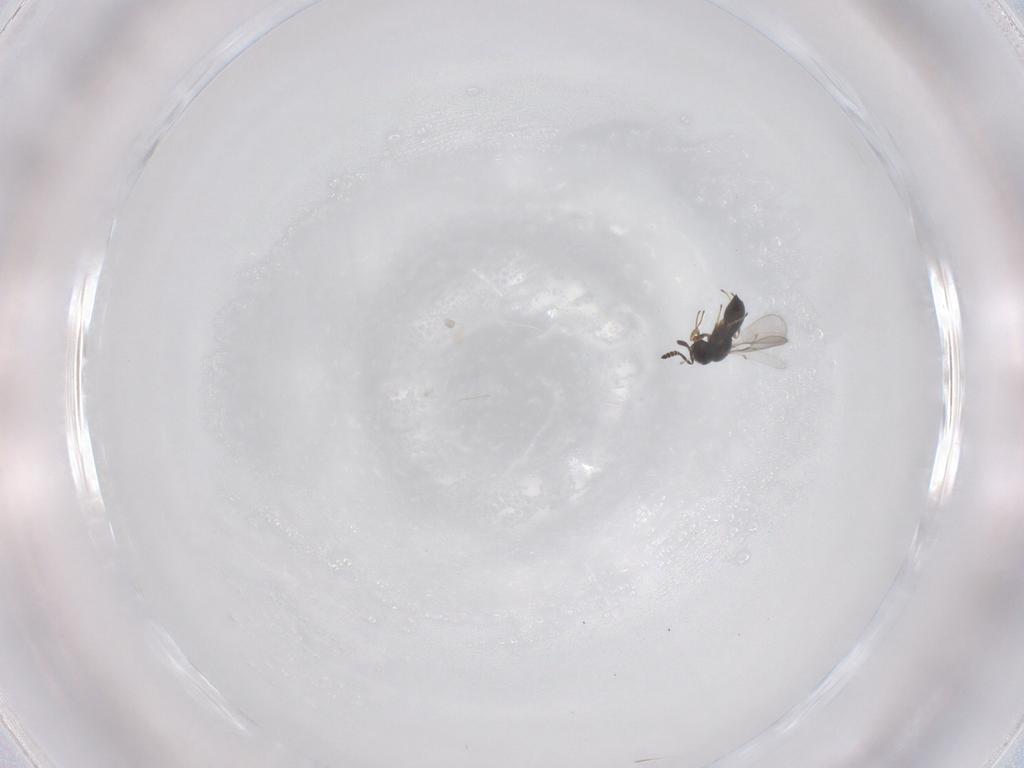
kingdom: Animalia
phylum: Arthropoda
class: Insecta
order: Hymenoptera
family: Scelionidae
